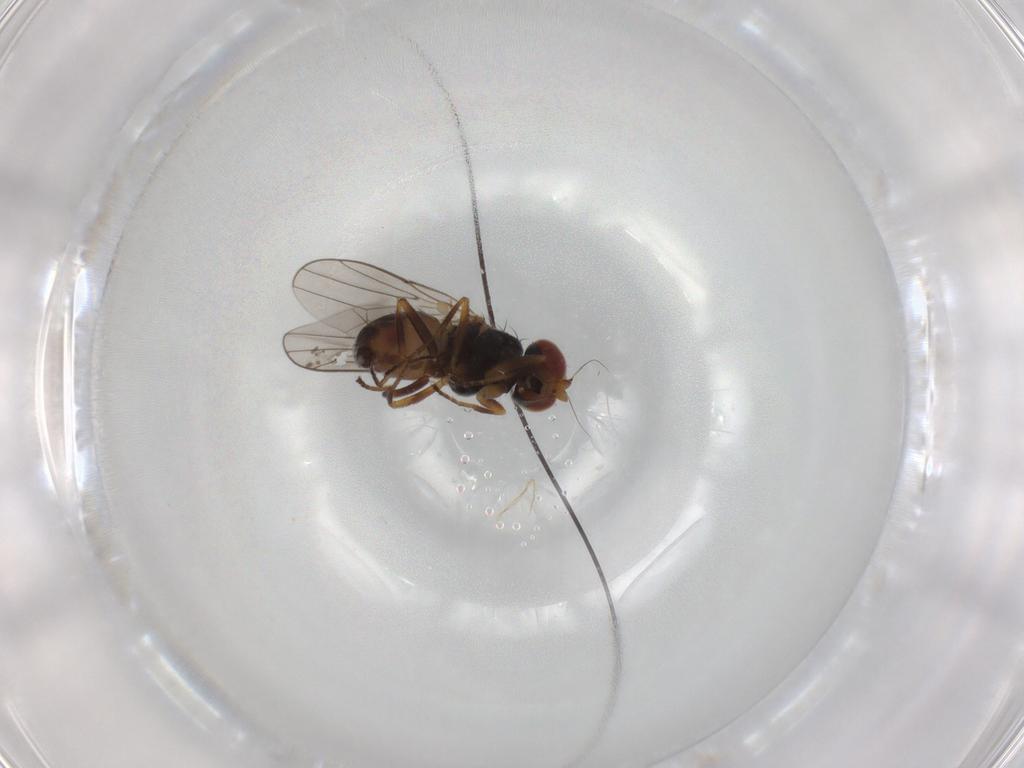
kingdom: Animalia
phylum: Arthropoda
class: Insecta
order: Diptera
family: Chloropidae
